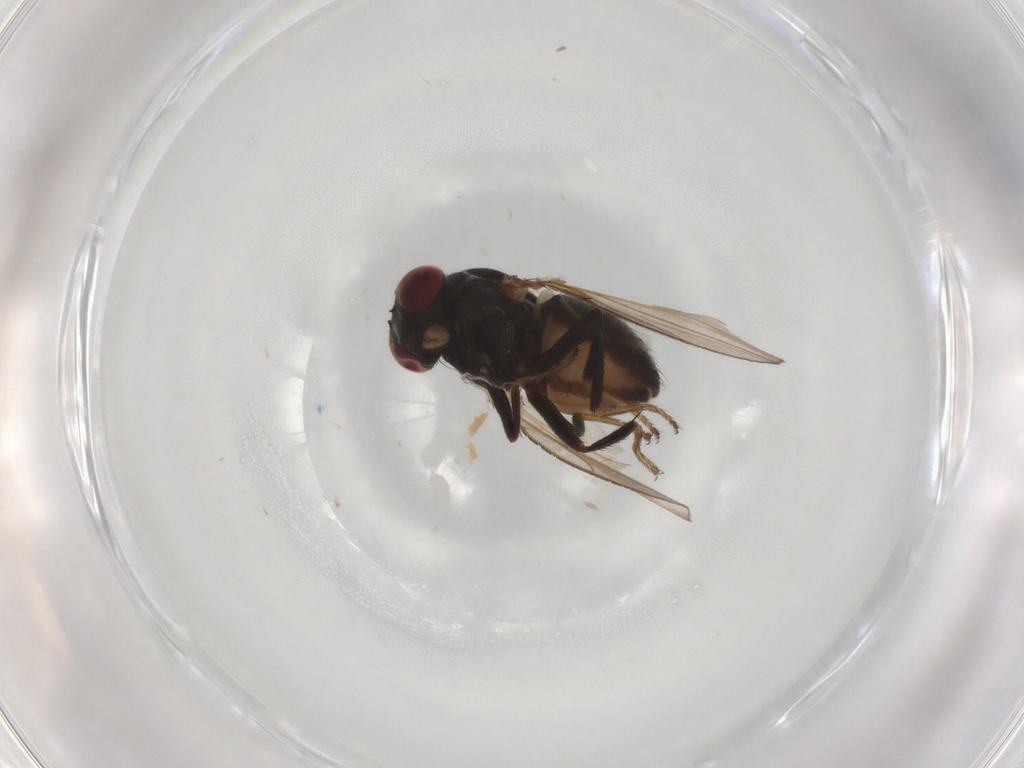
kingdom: Animalia
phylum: Arthropoda
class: Insecta
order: Diptera
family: Ephydridae
